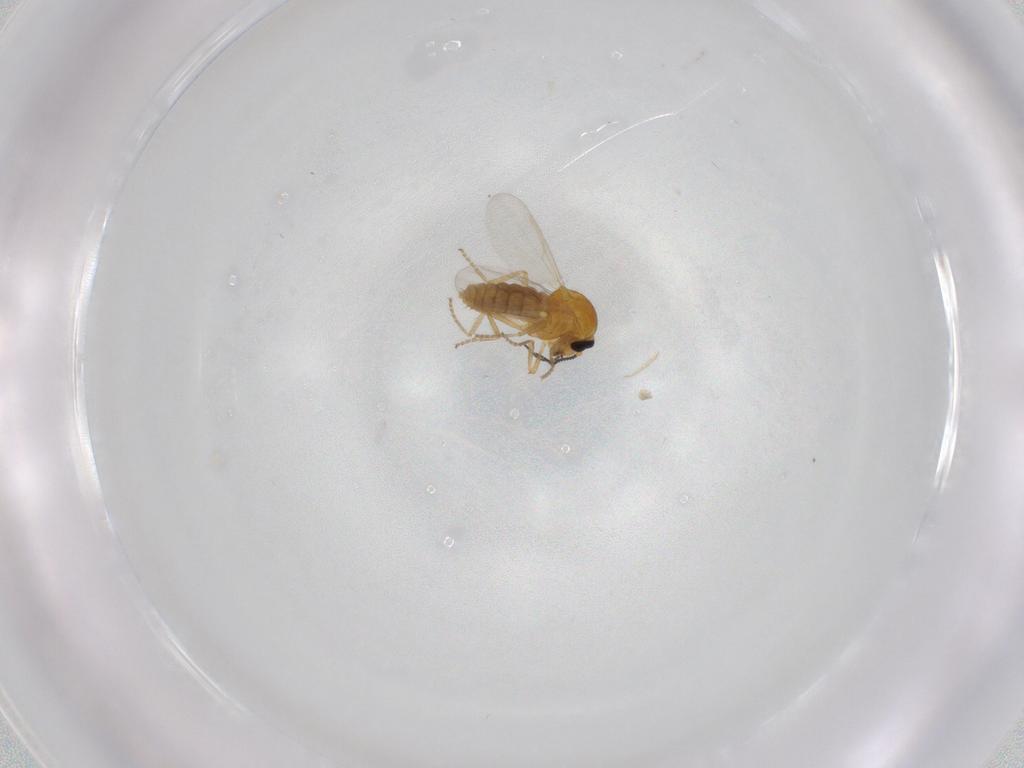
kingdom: Animalia
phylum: Arthropoda
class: Insecta
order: Diptera
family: Ceratopogonidae
